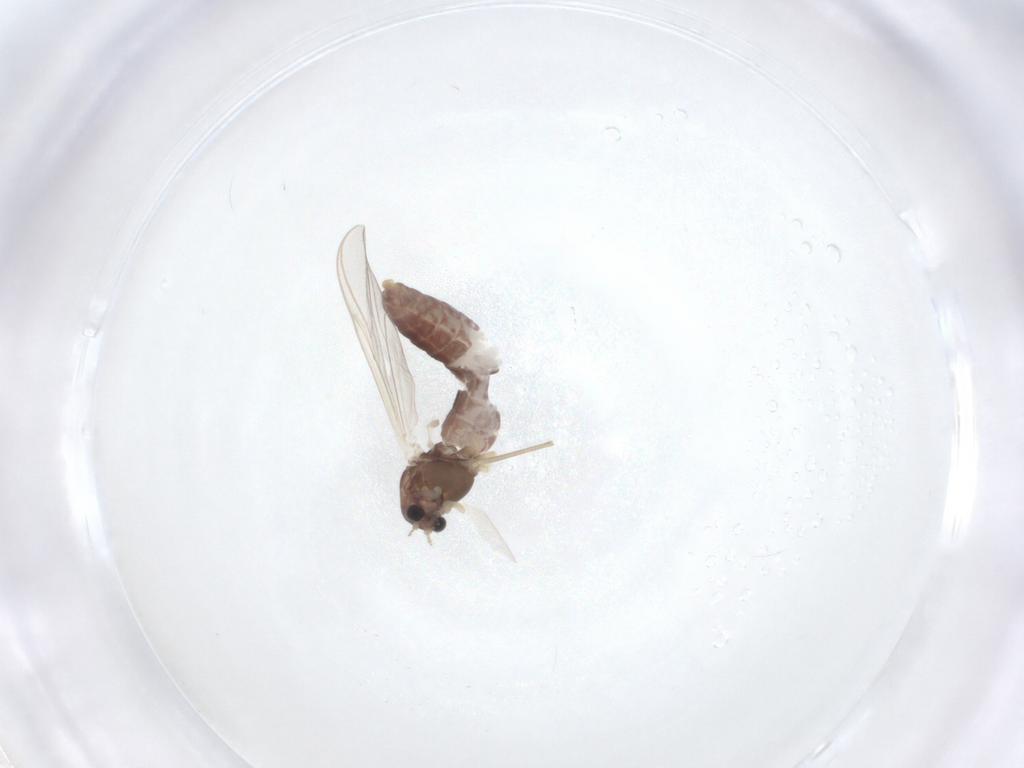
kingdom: Animalia
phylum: Arthropoda
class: Insecta
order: Diptera
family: Chironomidae
